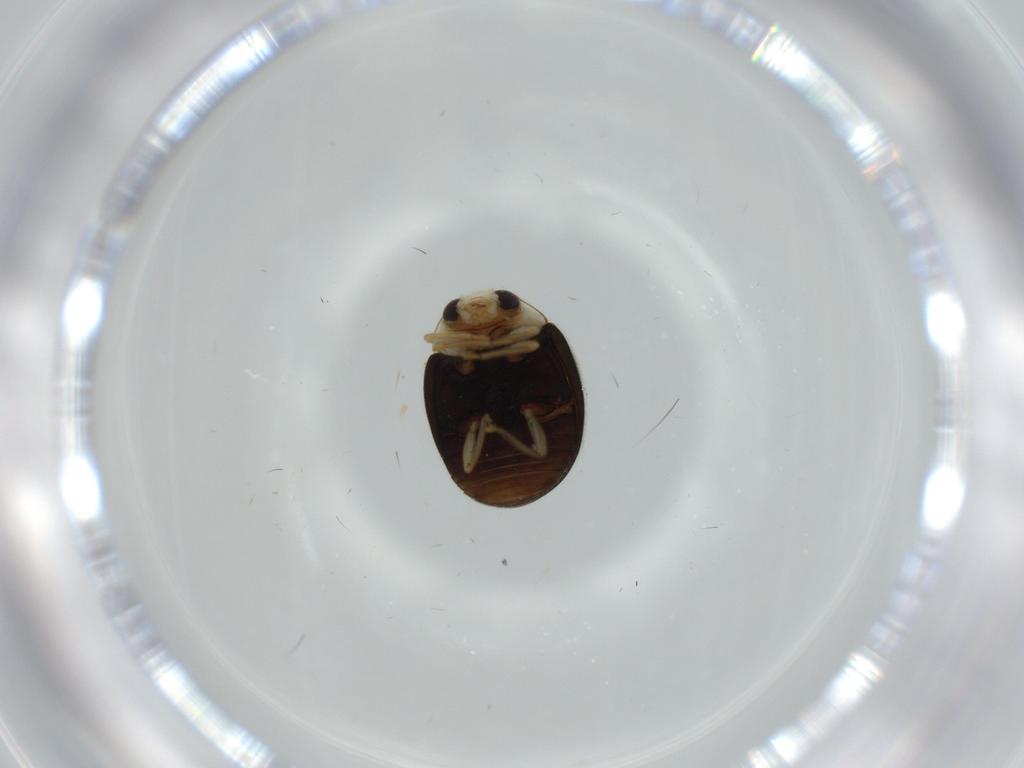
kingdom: Animalia
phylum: Arthropoda
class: Insecta
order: Coleoptera
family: Coccinellidae
